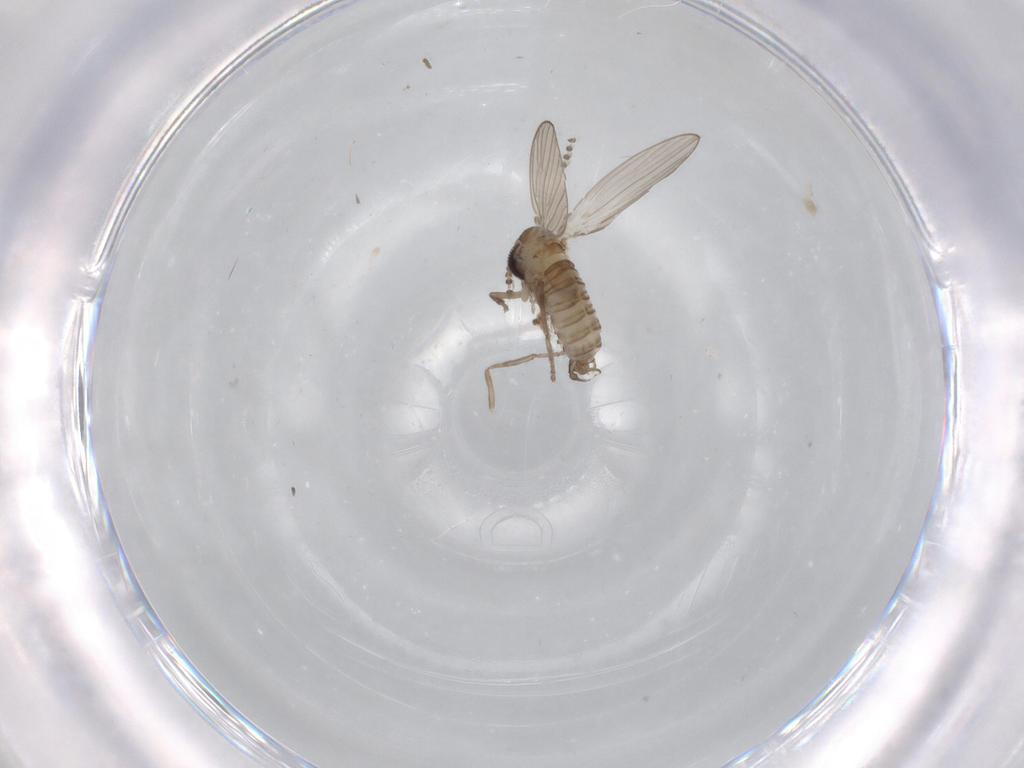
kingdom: Animalia
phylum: Arthropoda
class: Insecta
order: Diptera
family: Psychodidae
